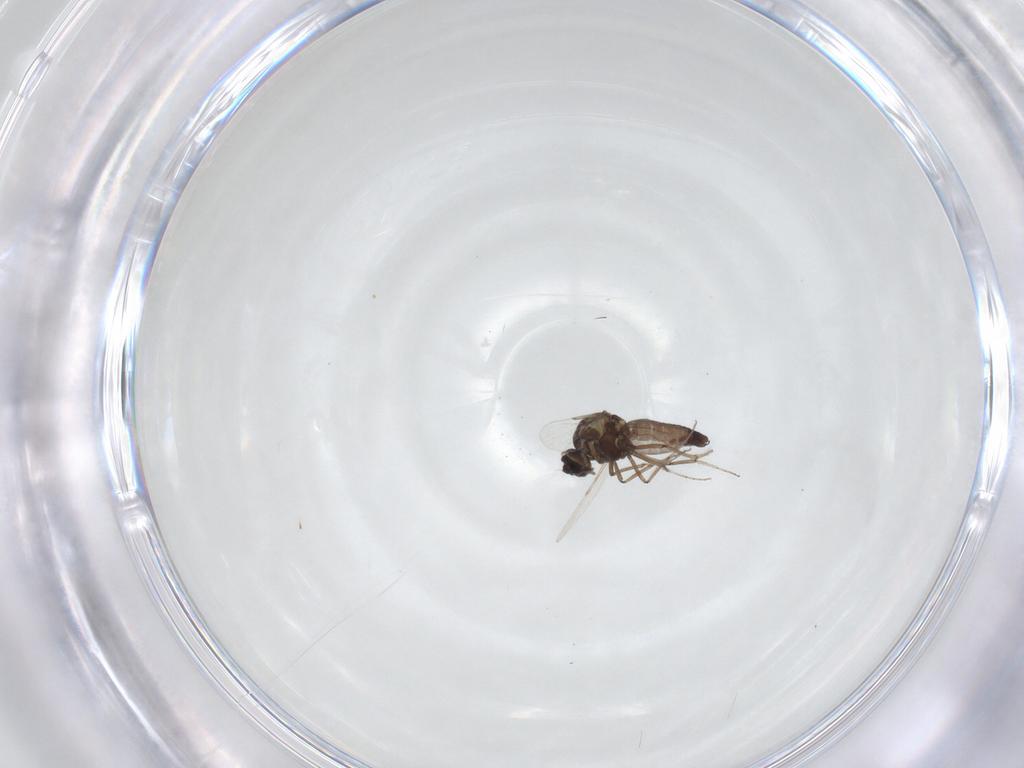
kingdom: Animalia
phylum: Arthropoda
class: Insecta
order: Diptera
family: Ceratopogonidae
